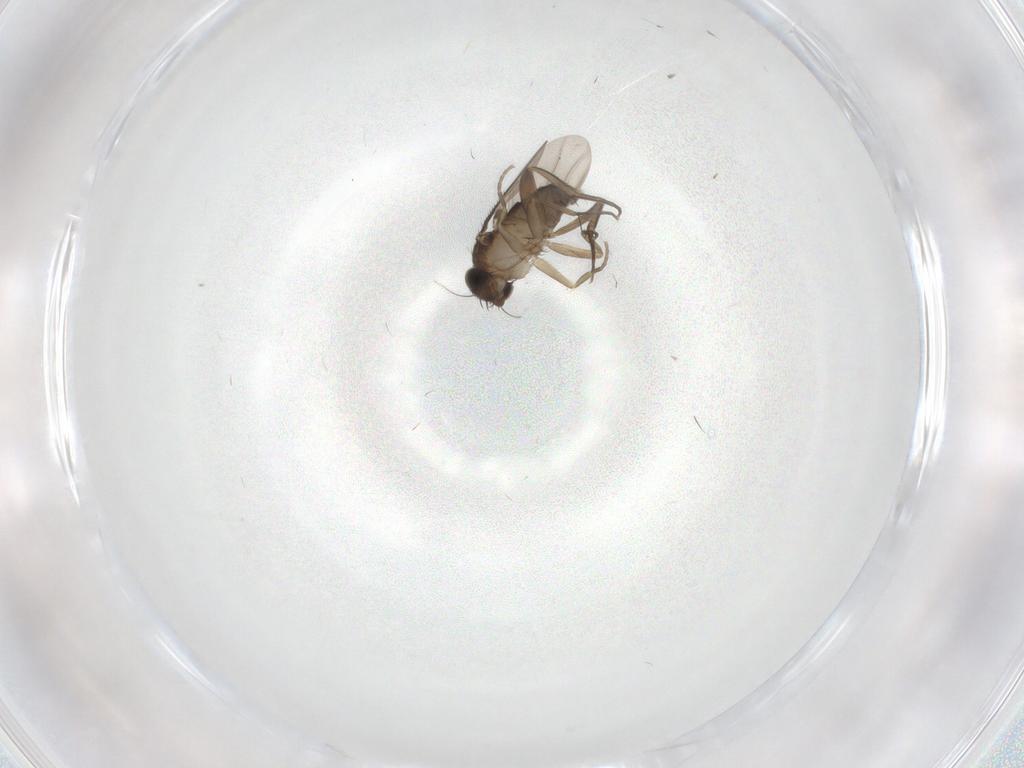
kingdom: Animalia
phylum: Arthropoda
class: Insecta
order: Diptera
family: Phoridae
